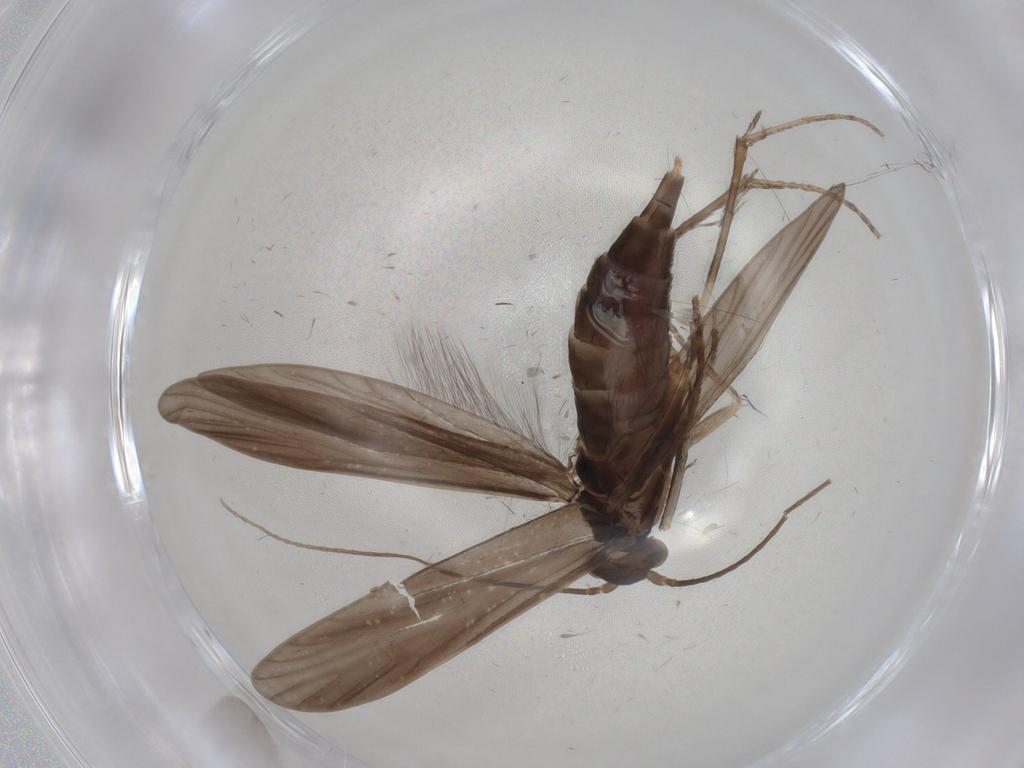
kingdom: Animalia
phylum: Arthropoda
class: Insecta
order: Trichoptera
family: Xiphocentronidae
